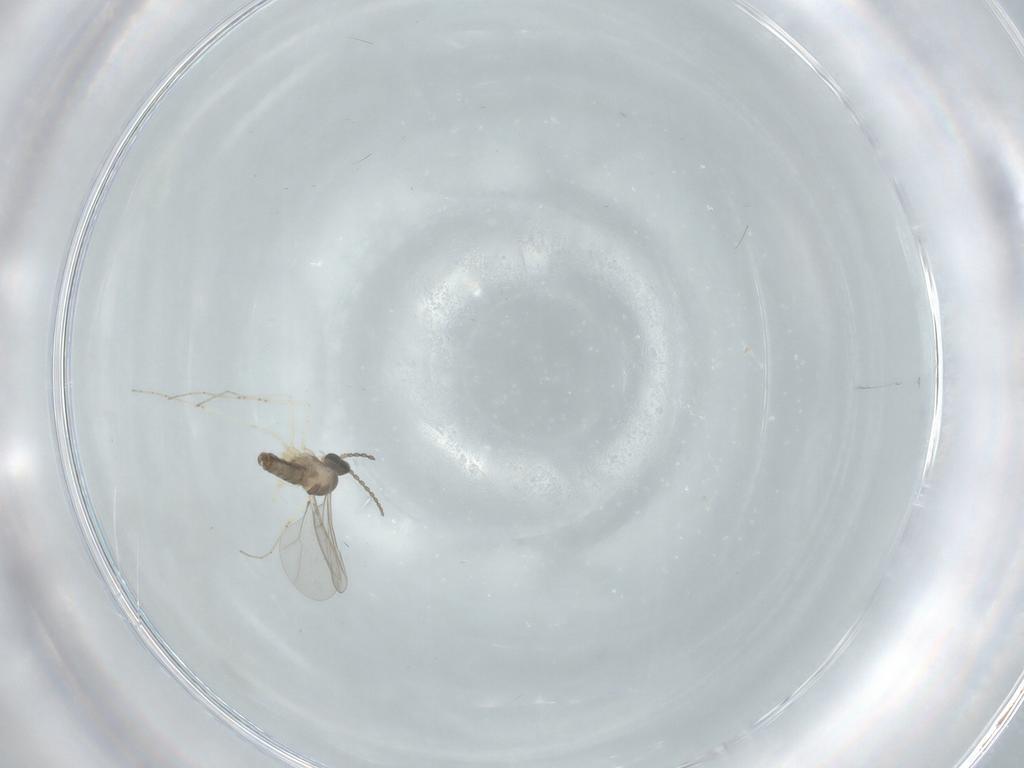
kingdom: Animalia
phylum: Arthropoda
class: Insecta
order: Diptera
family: Cecidomyiidae
